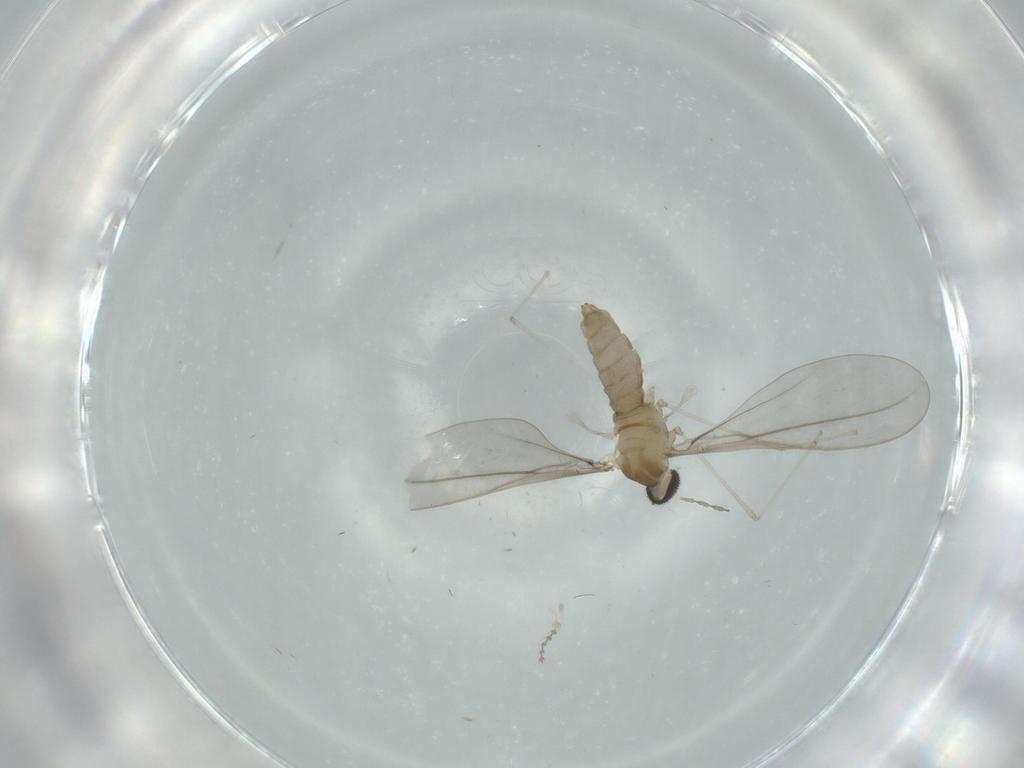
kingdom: Animalia
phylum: Arthropoda
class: Insecta
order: Diptera
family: Cecidomyiidae
